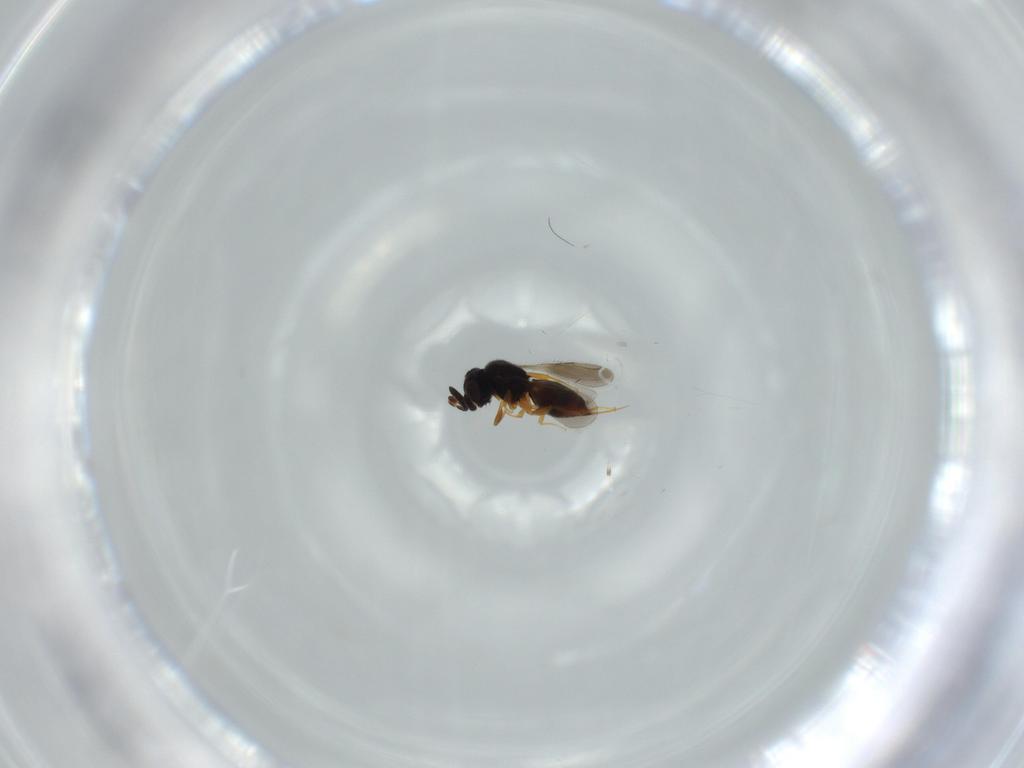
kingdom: Animalia
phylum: Arthropoda
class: Insecta
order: Hymenoptera
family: Ceraphronidae
